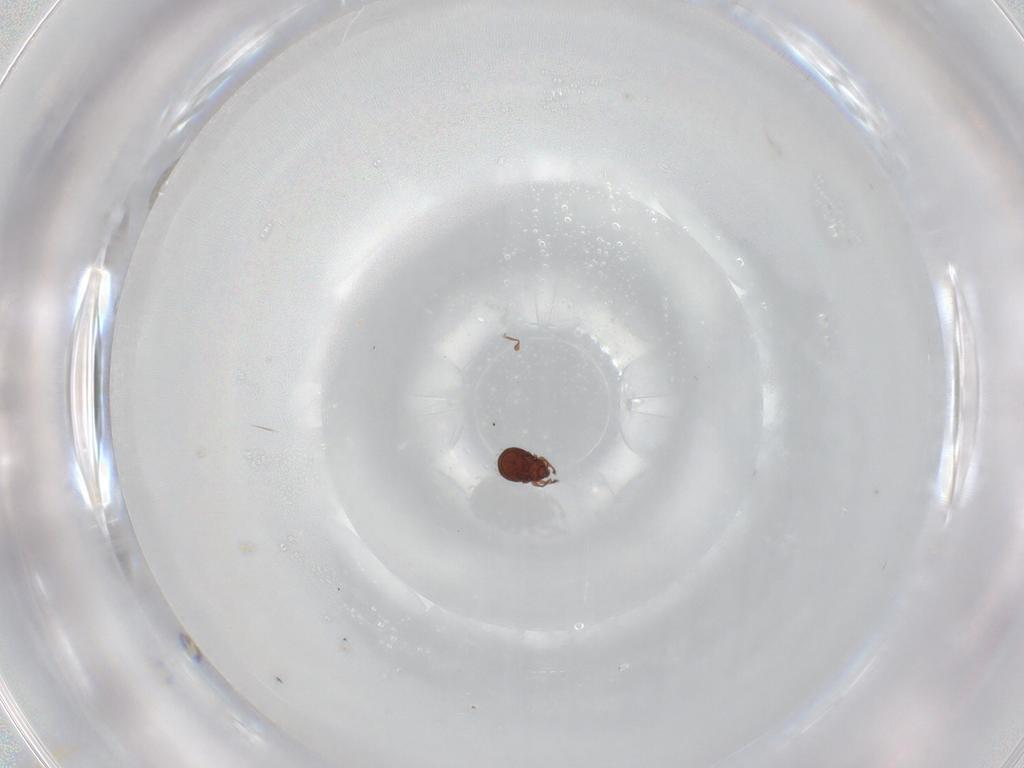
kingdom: Animalia
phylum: Arthropoda
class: Arachnida
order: Sarcoptiformes
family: Scheloribatidae
